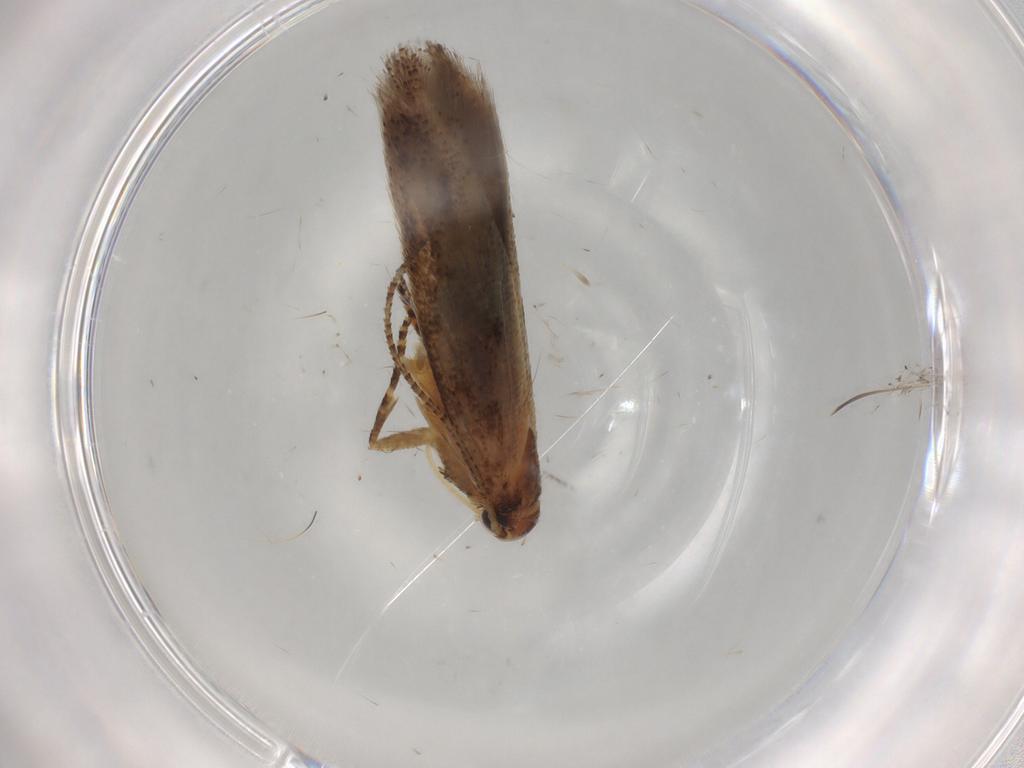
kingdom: Animalia
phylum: Arthropoda
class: Insecta
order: Lepidoptera
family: Gelechiidae
